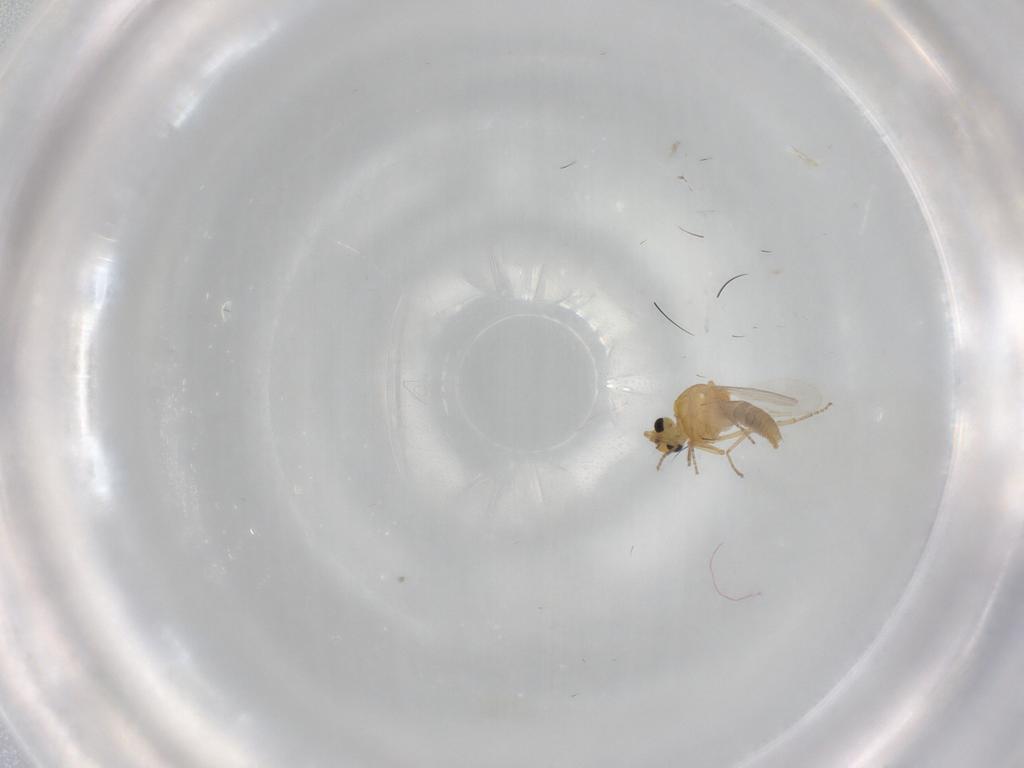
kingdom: Animalia
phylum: Arthropoda
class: Insecta
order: Diptera
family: Ceratopogonidae
